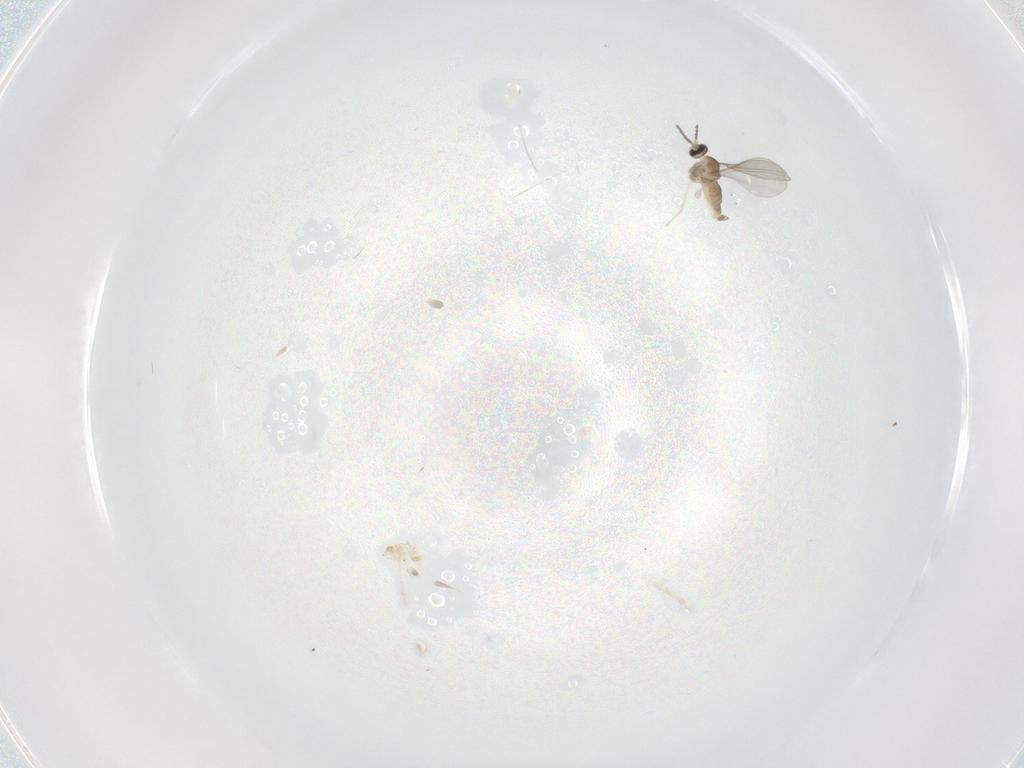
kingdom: Animalia
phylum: Arthropoda
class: Insecta
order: Diptera
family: Cecidomyiidae
